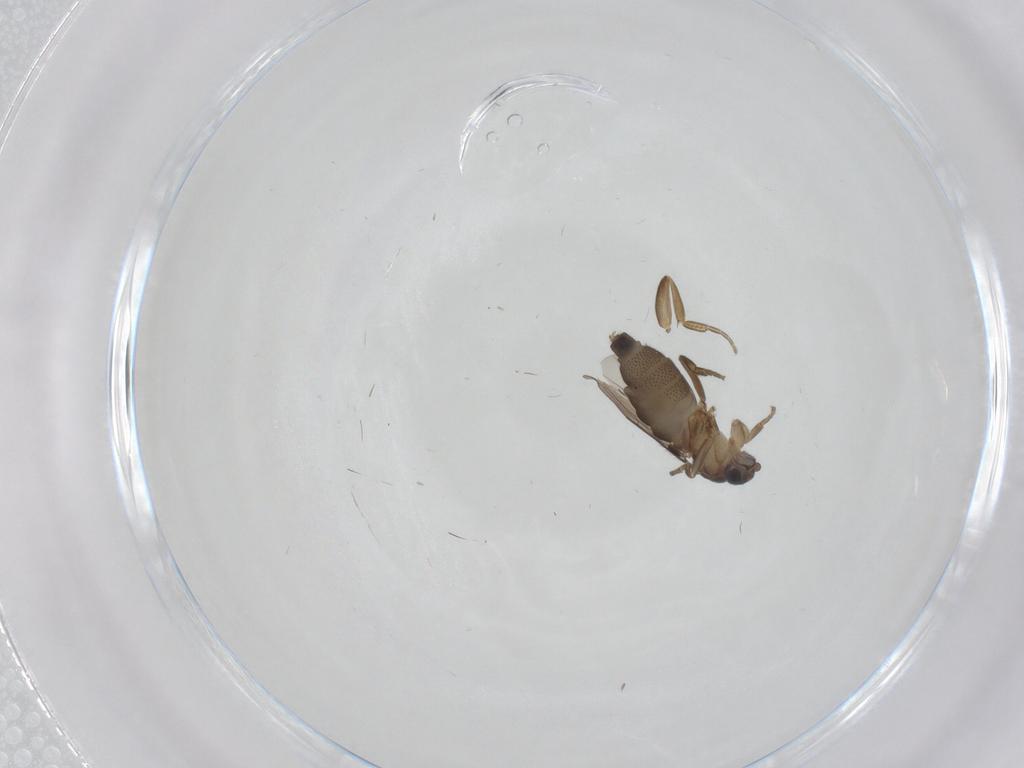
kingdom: Animalia
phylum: Arthropoda
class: Insecta
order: Diptera
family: Phoridae
